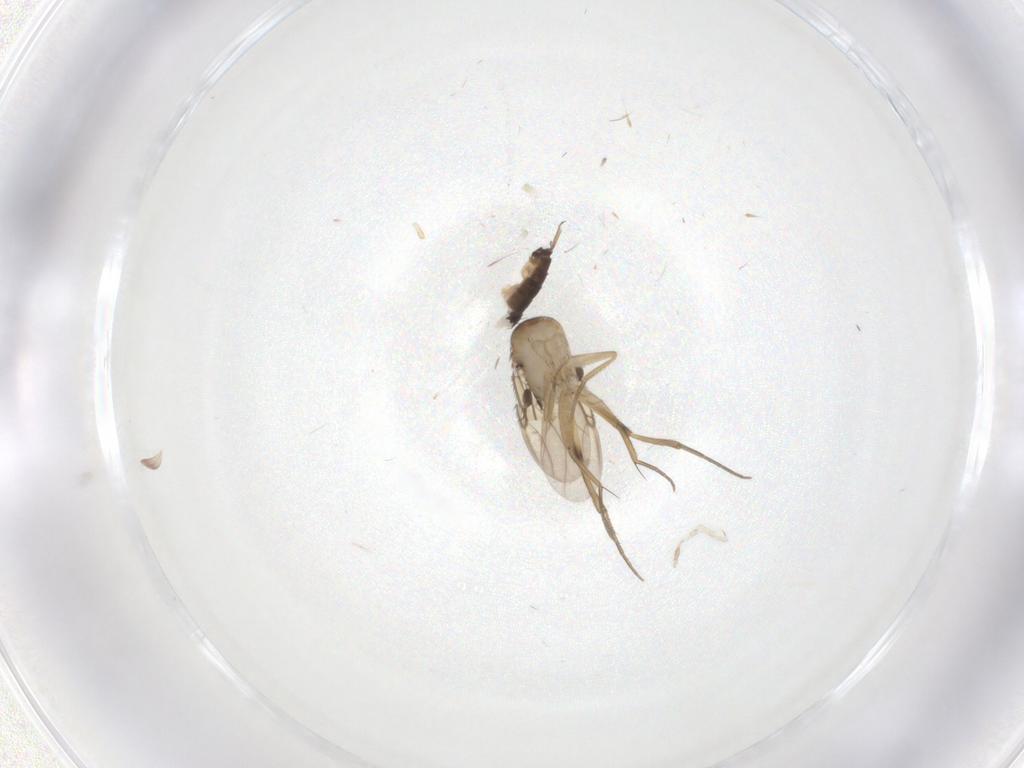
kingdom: Animalia
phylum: Arthropoda
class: Insecta
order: Diptera
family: Phoridae
